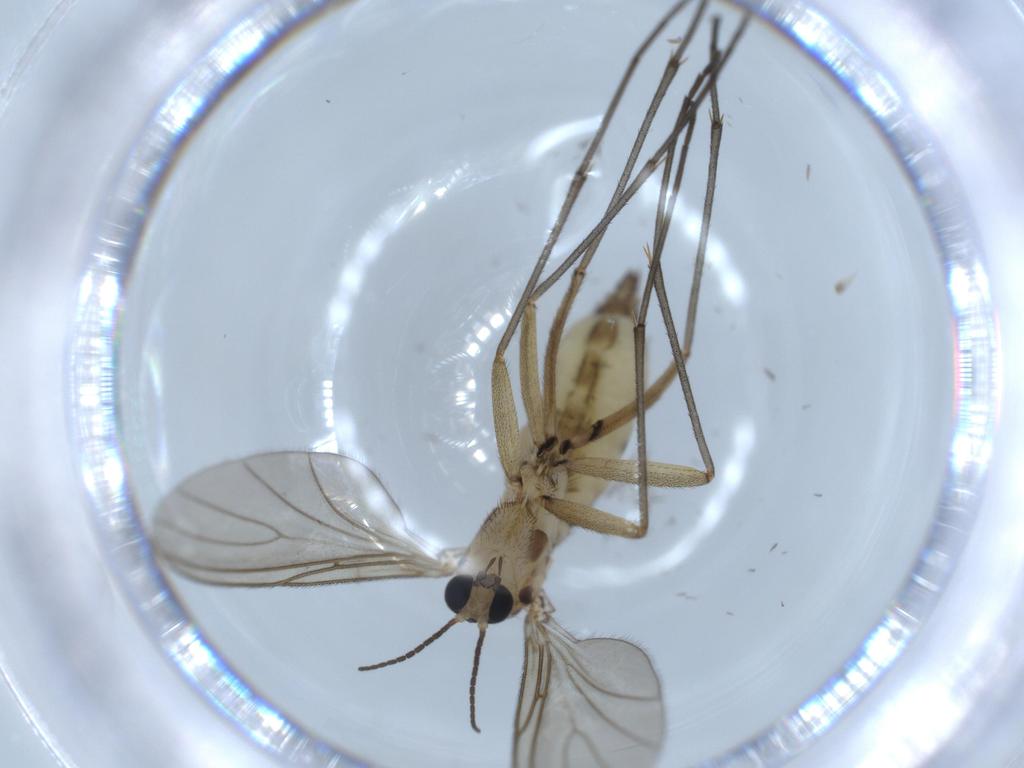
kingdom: Animalia
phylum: Arthropoda
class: Insecta
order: Diptera
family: Sciaridae
